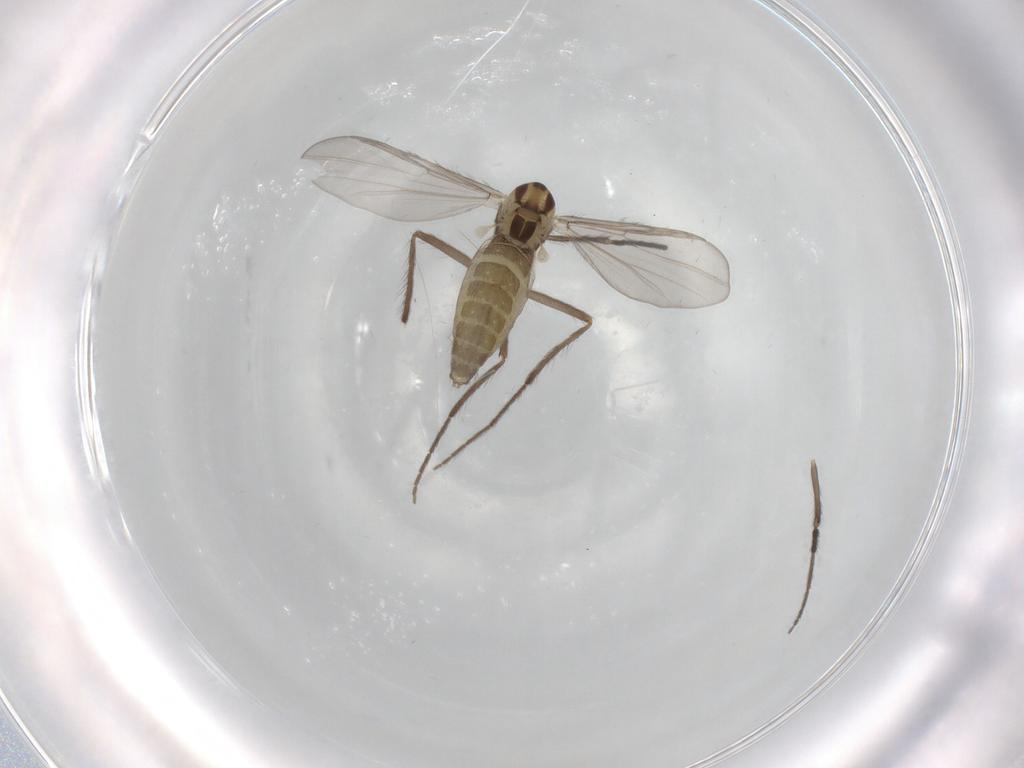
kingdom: Animalia
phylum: Arthropoda
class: Insecta
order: Diptera
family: Chironomidae
